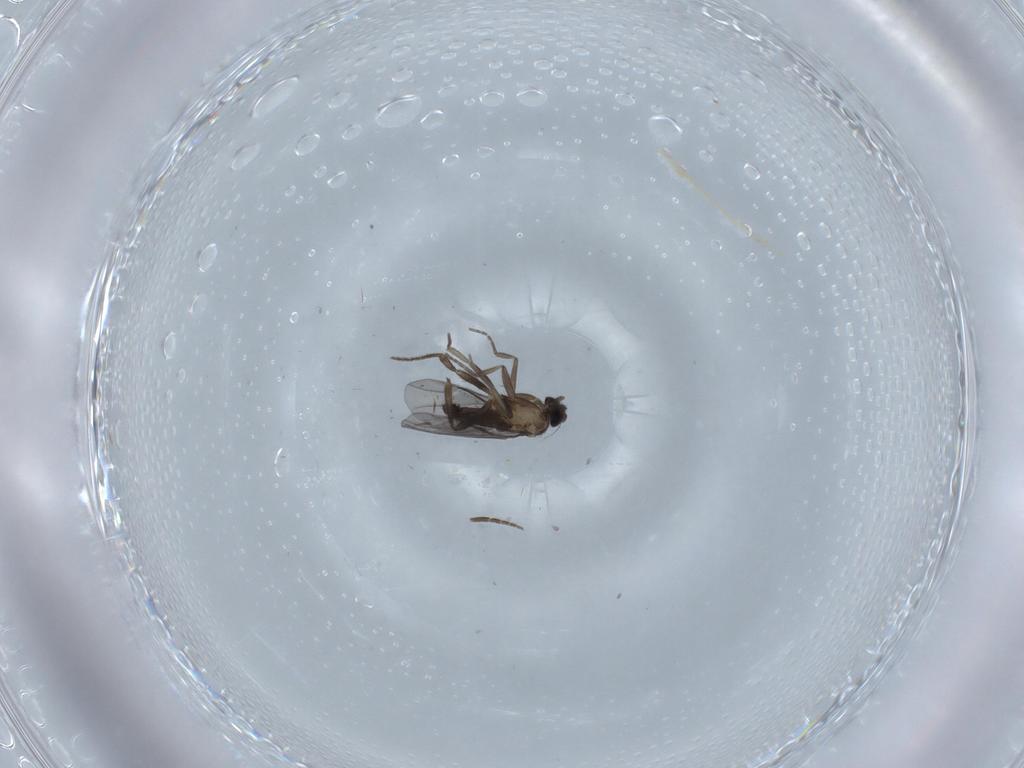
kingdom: Animalia
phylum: Arthropoda
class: Insecta
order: Diptera
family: Phoridae
